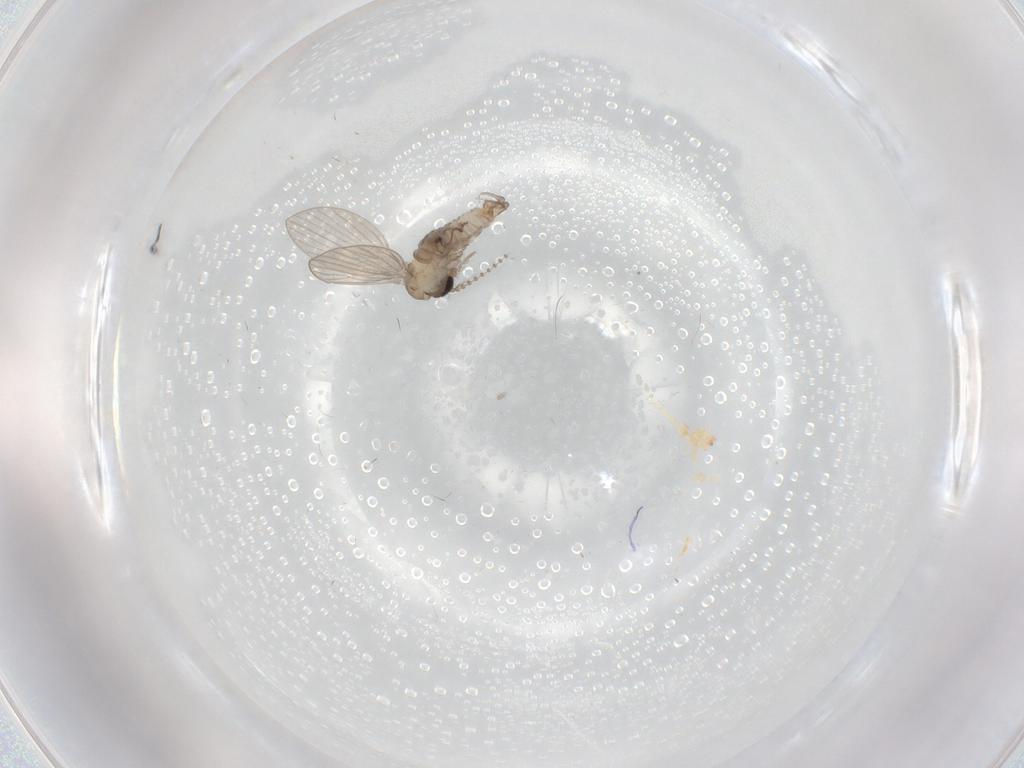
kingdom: Animalia
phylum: Arthropoda
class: Insecta
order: Diptera
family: Psychodidae
